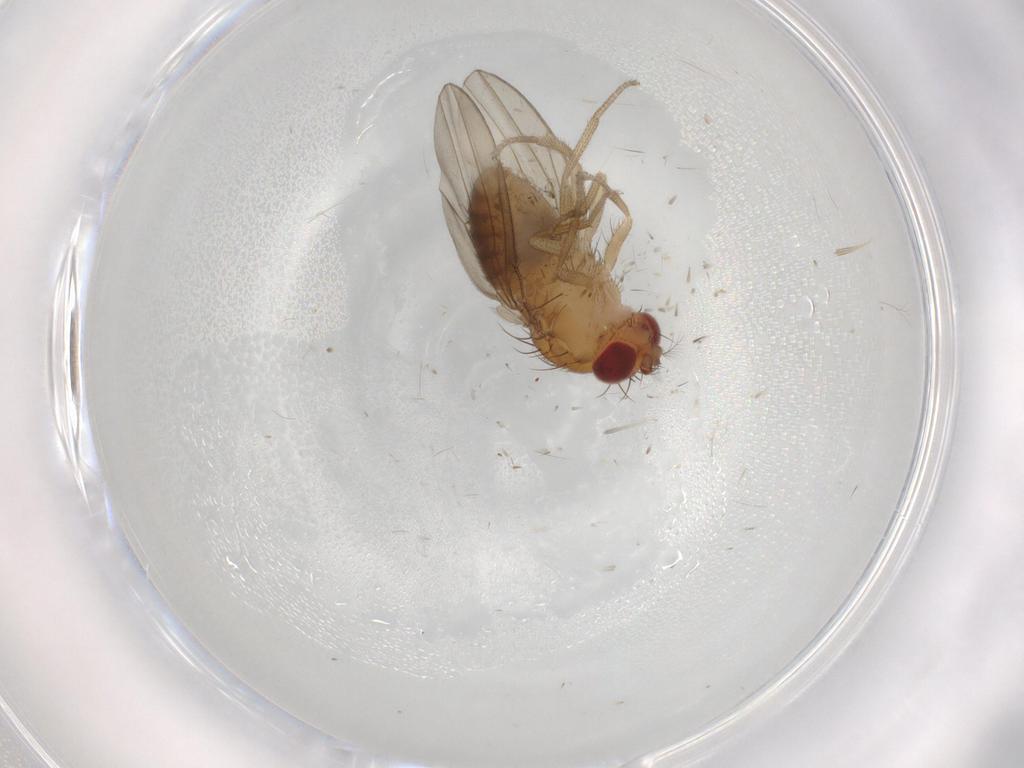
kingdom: Animalia
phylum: Arthropoda
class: Insecta
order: Diptera
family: Drosophilidae
